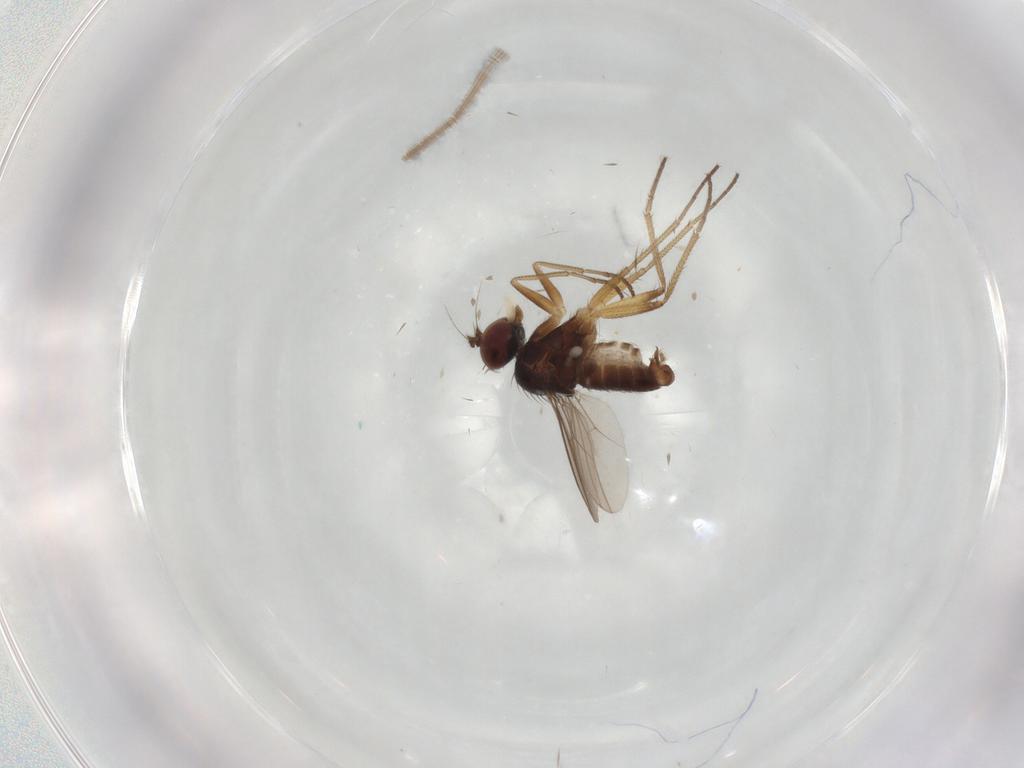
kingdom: Animalia
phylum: Arthropoda
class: Insecta
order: Diptera
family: Dolichopodidae
